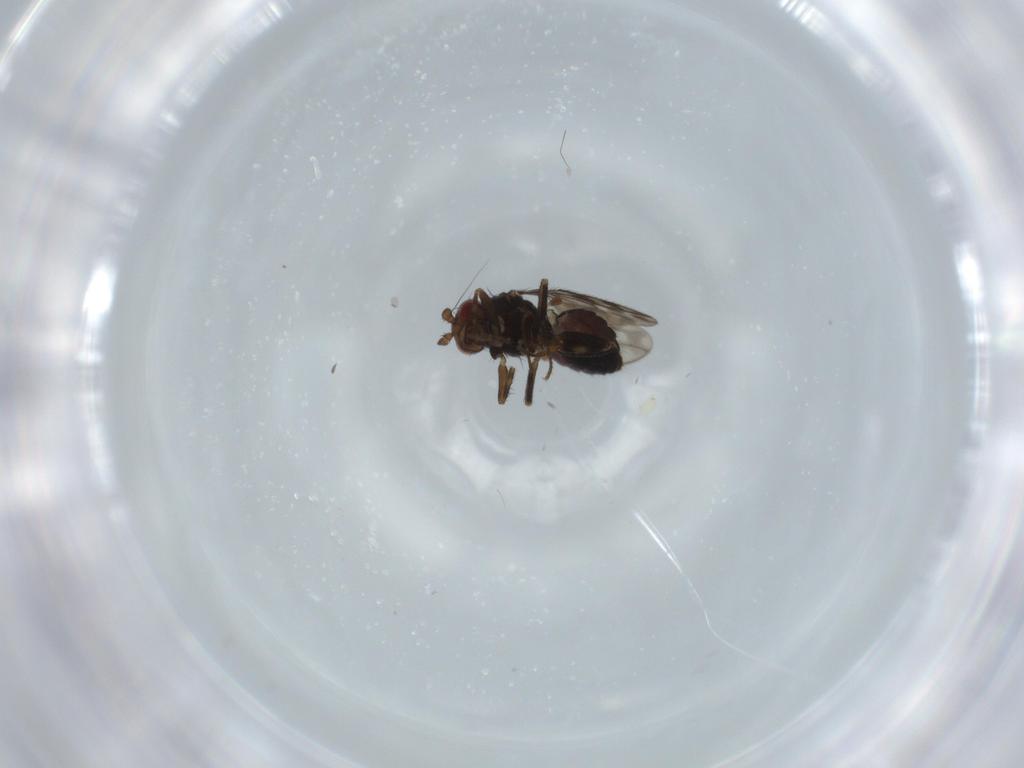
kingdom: Animalia
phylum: Arthropoda
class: Insecta
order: Diptera
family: Sphaeroceridae
